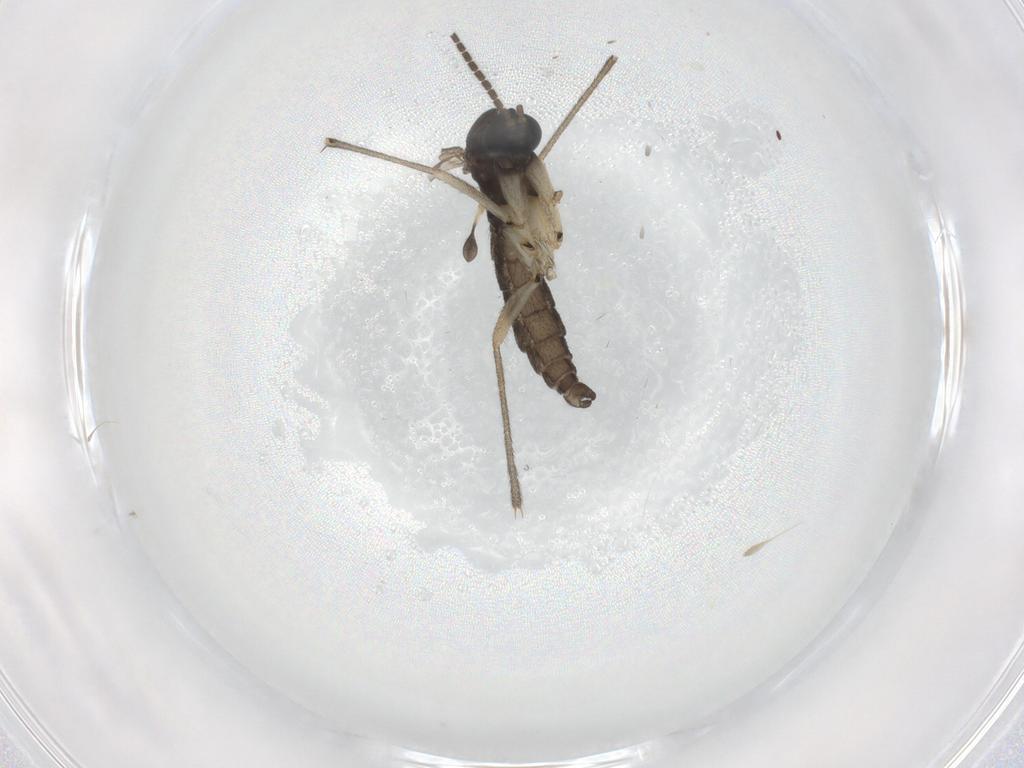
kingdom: Animalia
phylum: Arthropoda
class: Insecta
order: Diptera
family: Sciaridae
